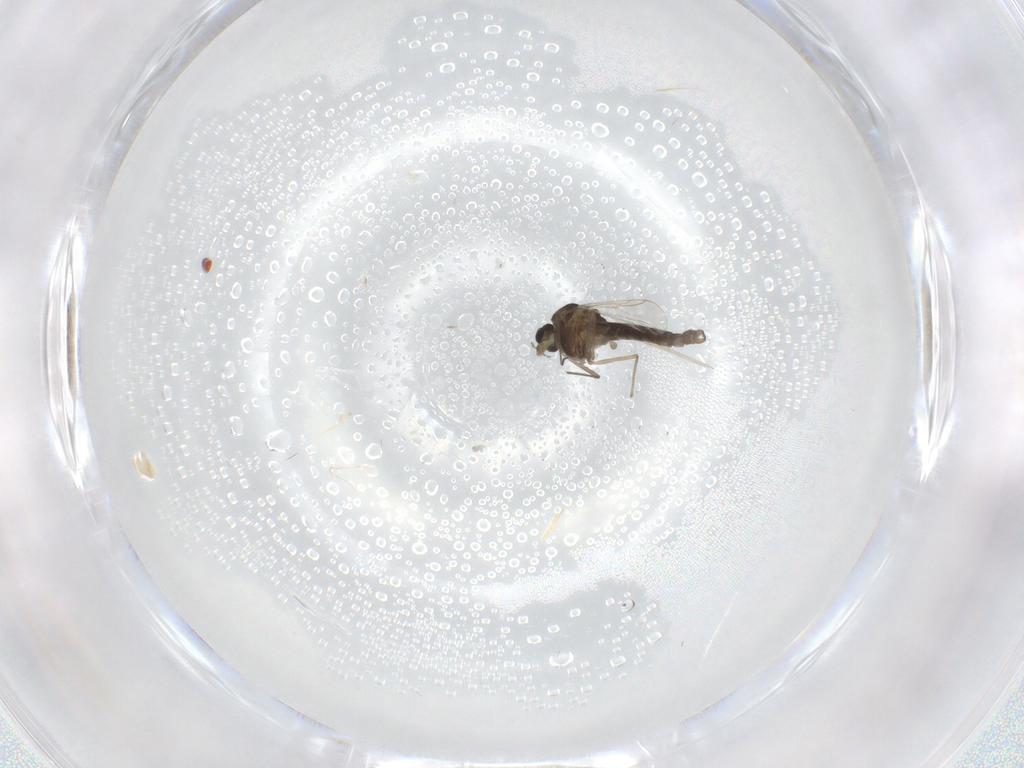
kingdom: Animalia
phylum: Arthropoda
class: Insecta
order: Diptera
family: Chironomidae
